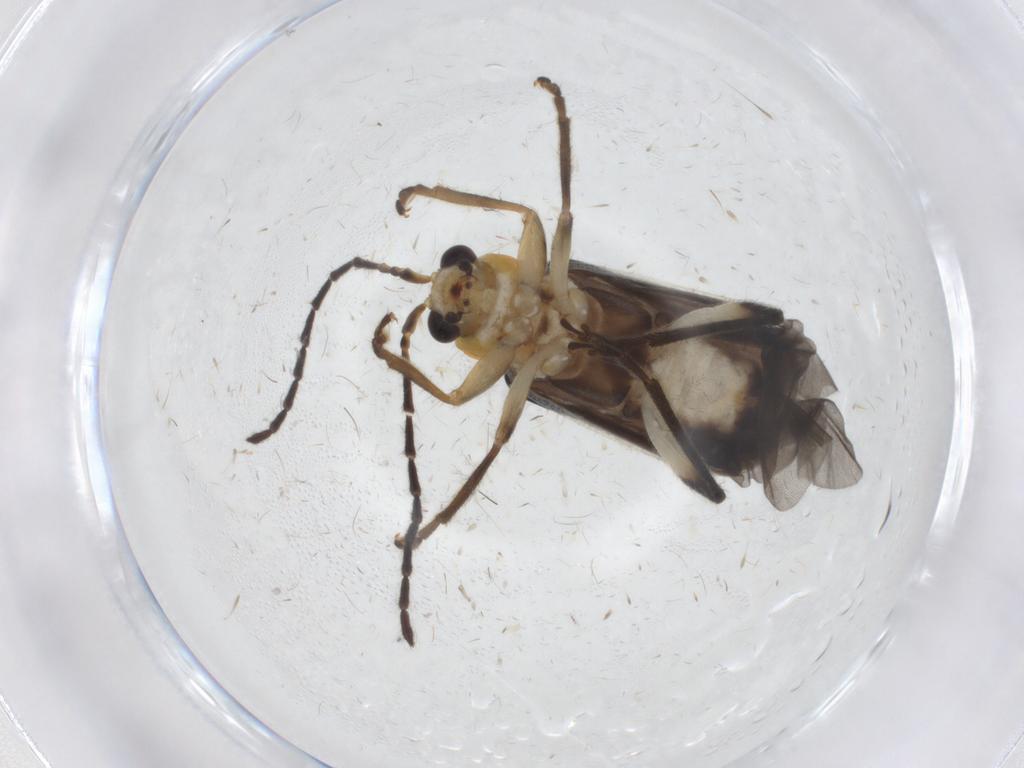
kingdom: Animalia
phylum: Arthropoda
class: Insecta
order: Coleoptera
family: Chrysomelidae
